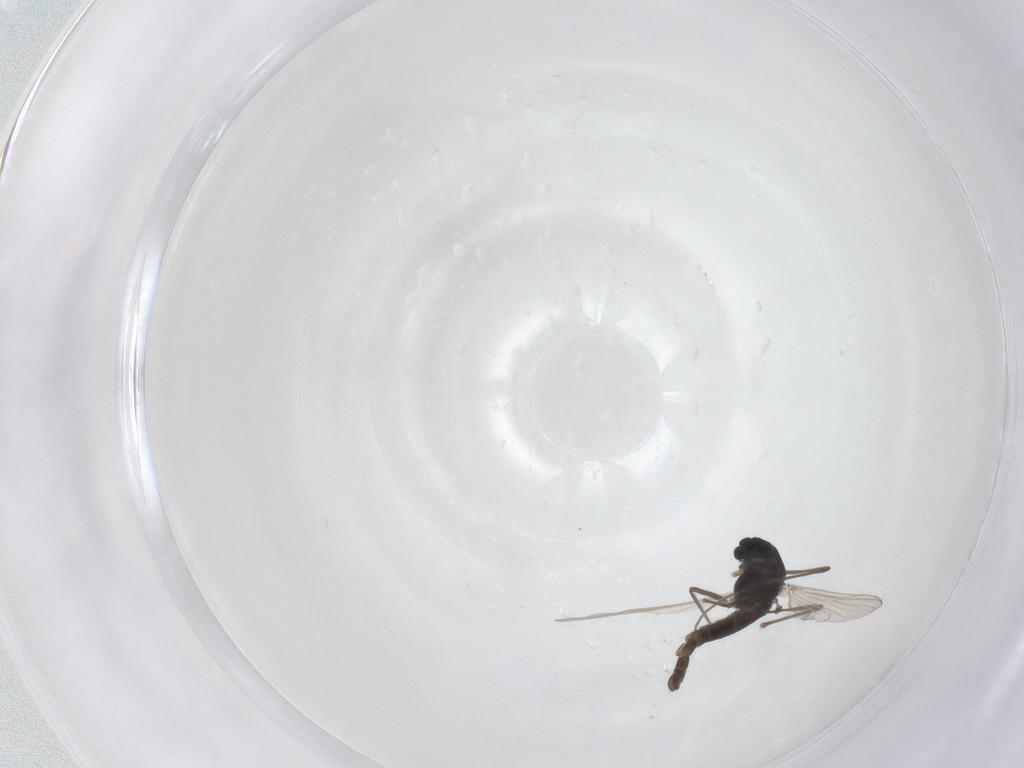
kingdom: Animalia
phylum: Arthropoda
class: Insecta
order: Diptera
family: Chironomidae
